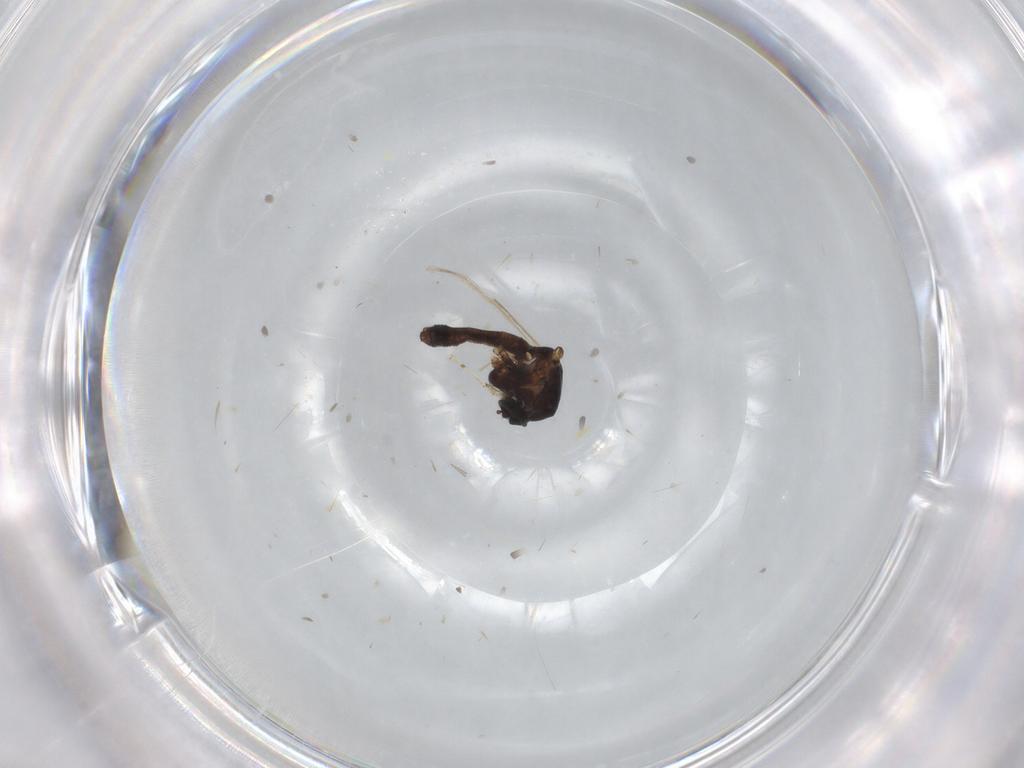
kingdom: Animalia
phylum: Arthropoda
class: Insecta
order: Diptera
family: Ceratopogonidae
